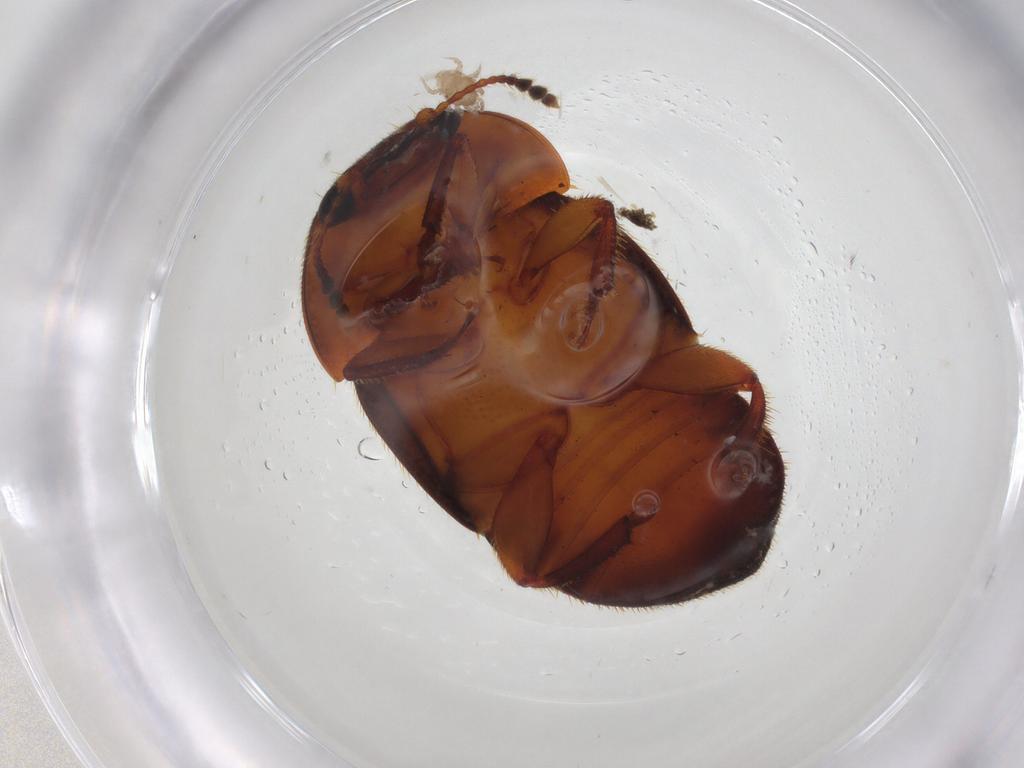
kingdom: Animalia
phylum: Arthropoda
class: Insecta
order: Coleoptera
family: Nitidulidae
